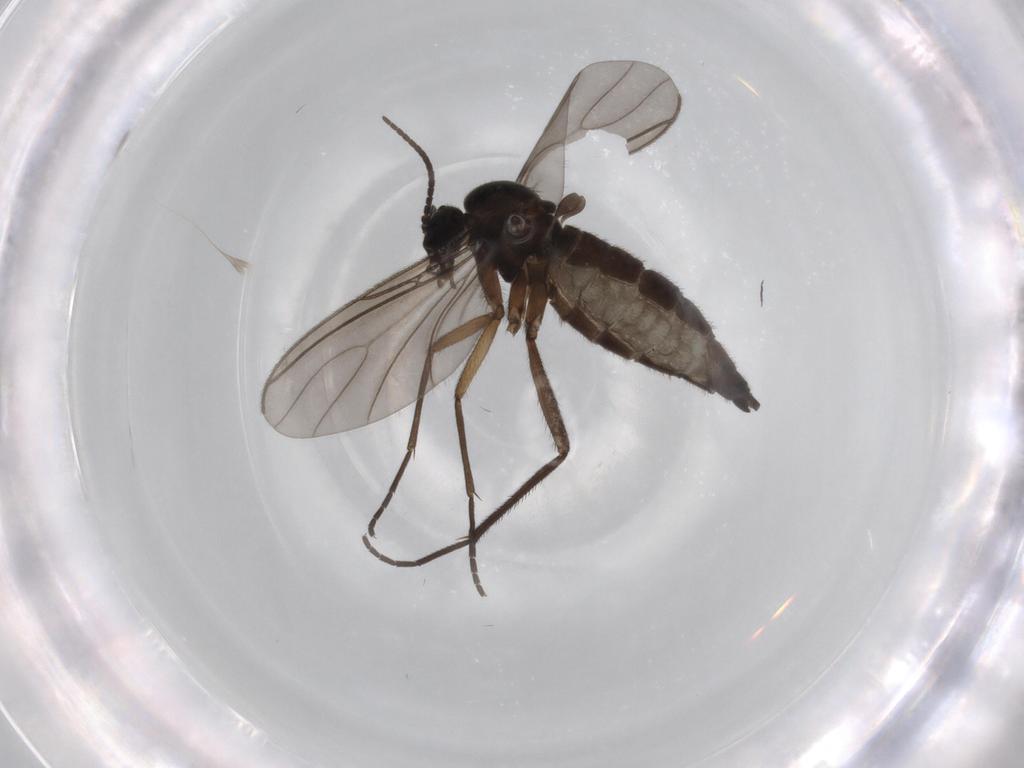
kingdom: Animalia
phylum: Arthropoda
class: Insecta
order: Diptera
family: Sciaridae
